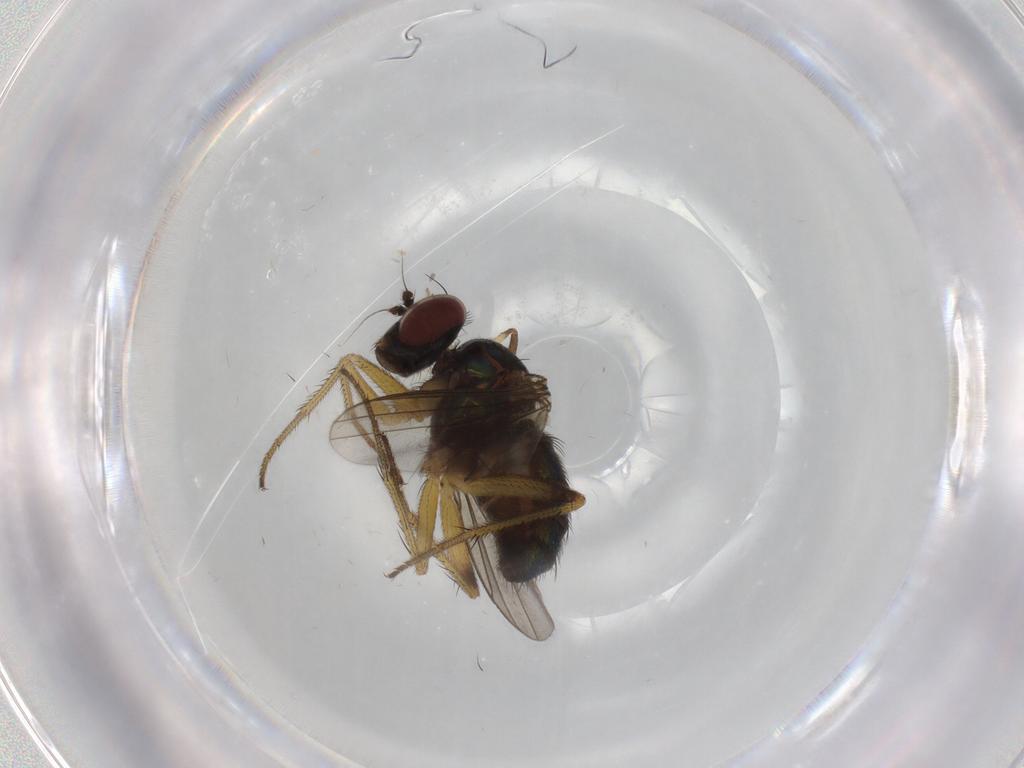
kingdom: Animalia
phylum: Arthropoda
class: Insecta
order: Diptera
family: Dolichopodidae
